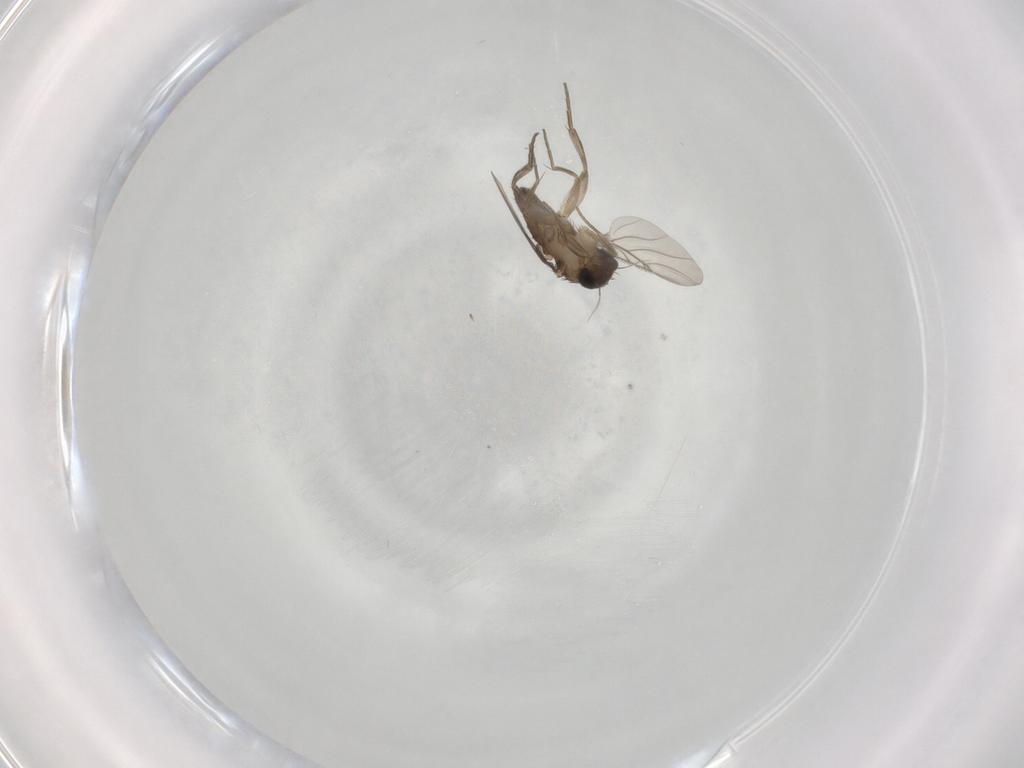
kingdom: Animalia
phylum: Arthropoda
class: Insecta
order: Diptera
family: Phoridae
